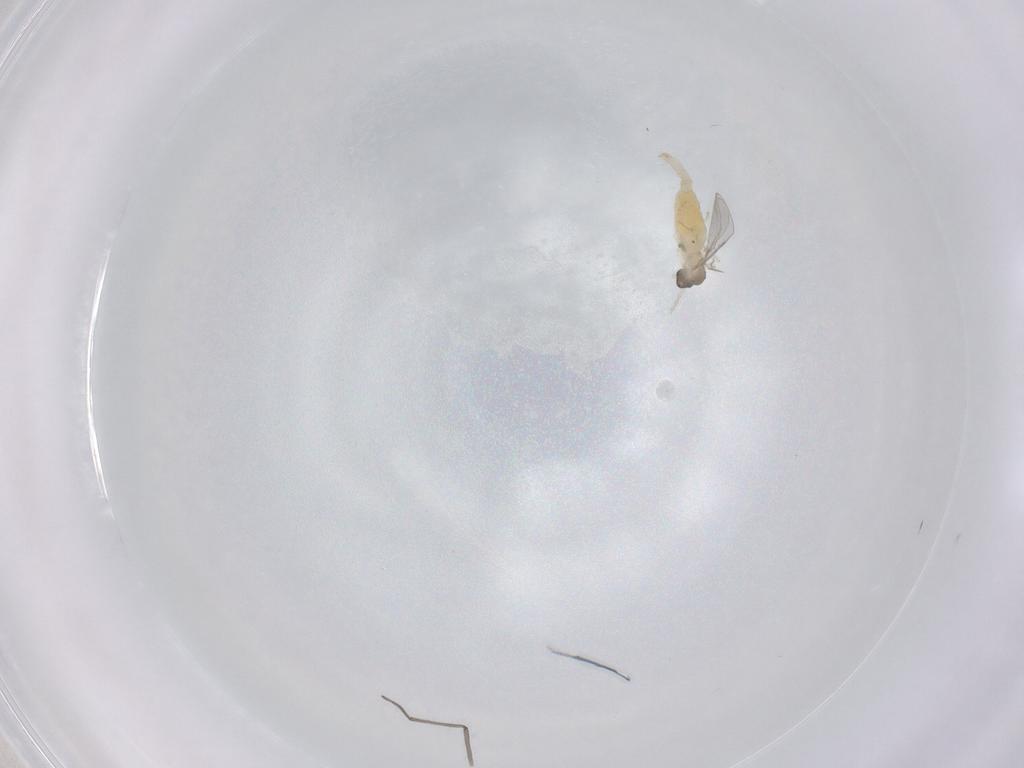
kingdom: Animalia
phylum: Arthropoda
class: Insecta
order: Diptera
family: Cecidomyiidae
